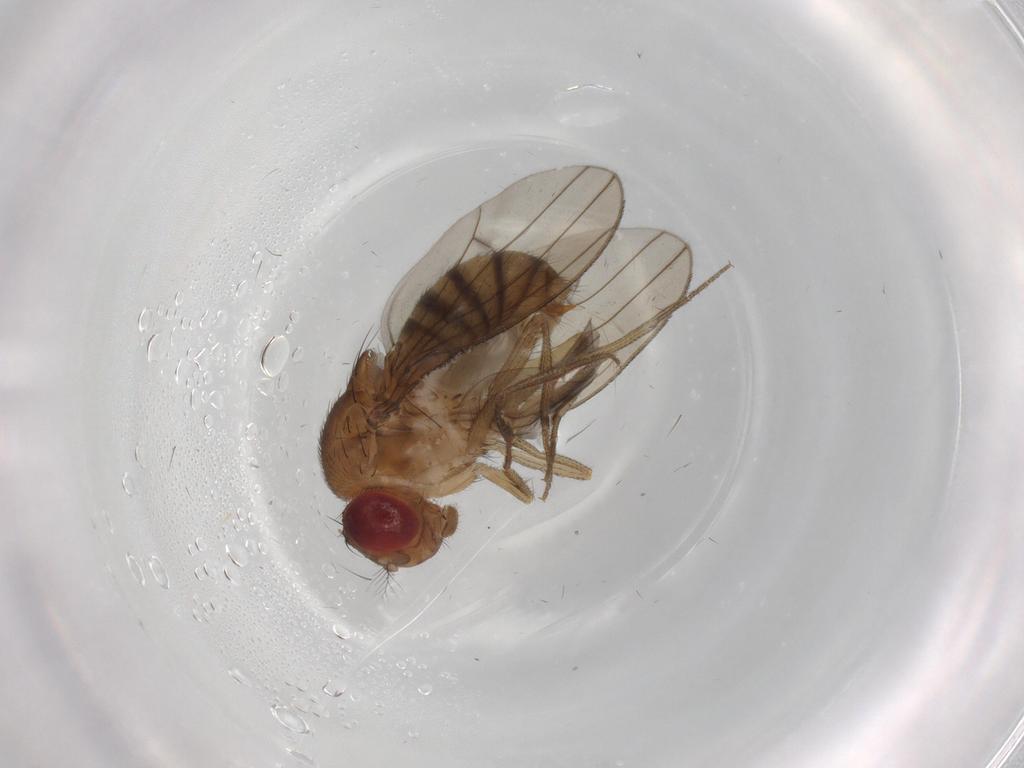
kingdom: Animalia
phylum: Arthropoda
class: Insecta
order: Diptera
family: Drosophilidae
